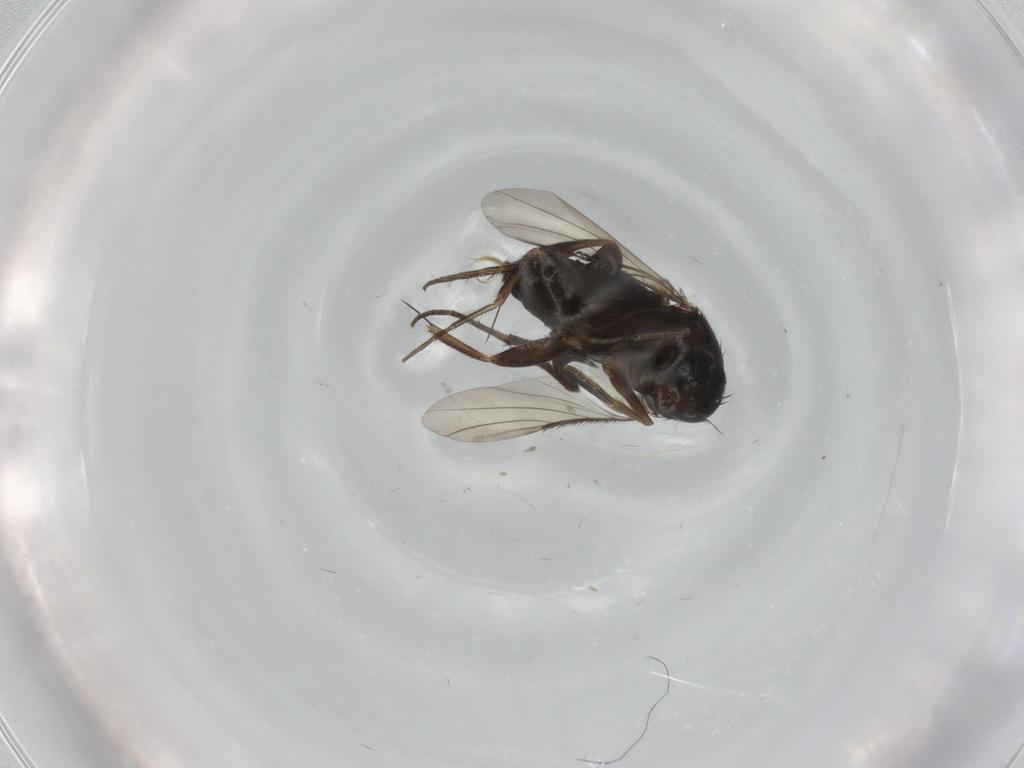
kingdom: Animalia
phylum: Arthropoda
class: Insecta
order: Diptera
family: Phoridae
